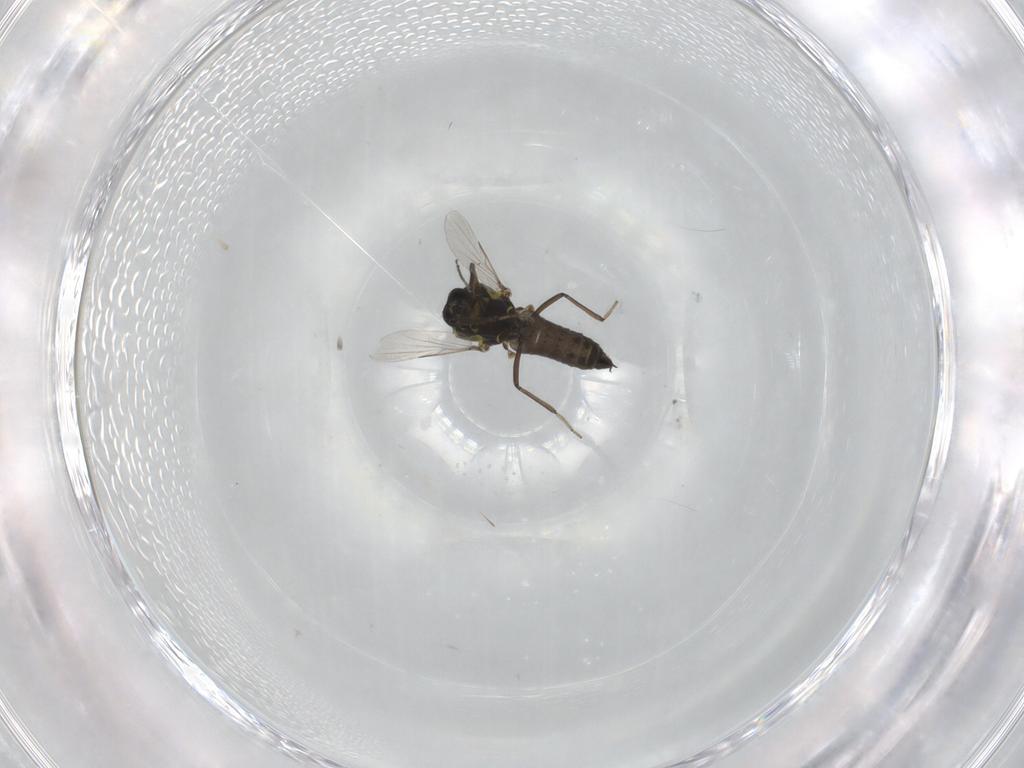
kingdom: Animalia
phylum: Arthropoda
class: Insecta
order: Diptera
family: Ceratopogonidae
